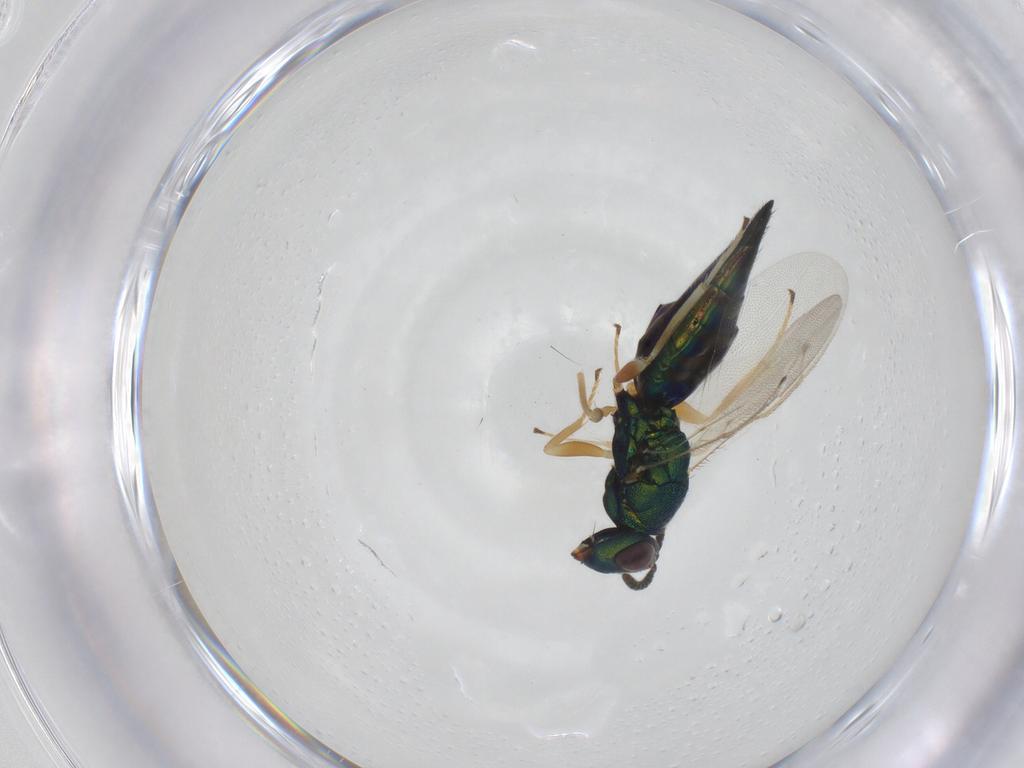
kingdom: Animalia
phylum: Arthropoda
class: Insecta
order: Hymenoptera
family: Pteromalidae
